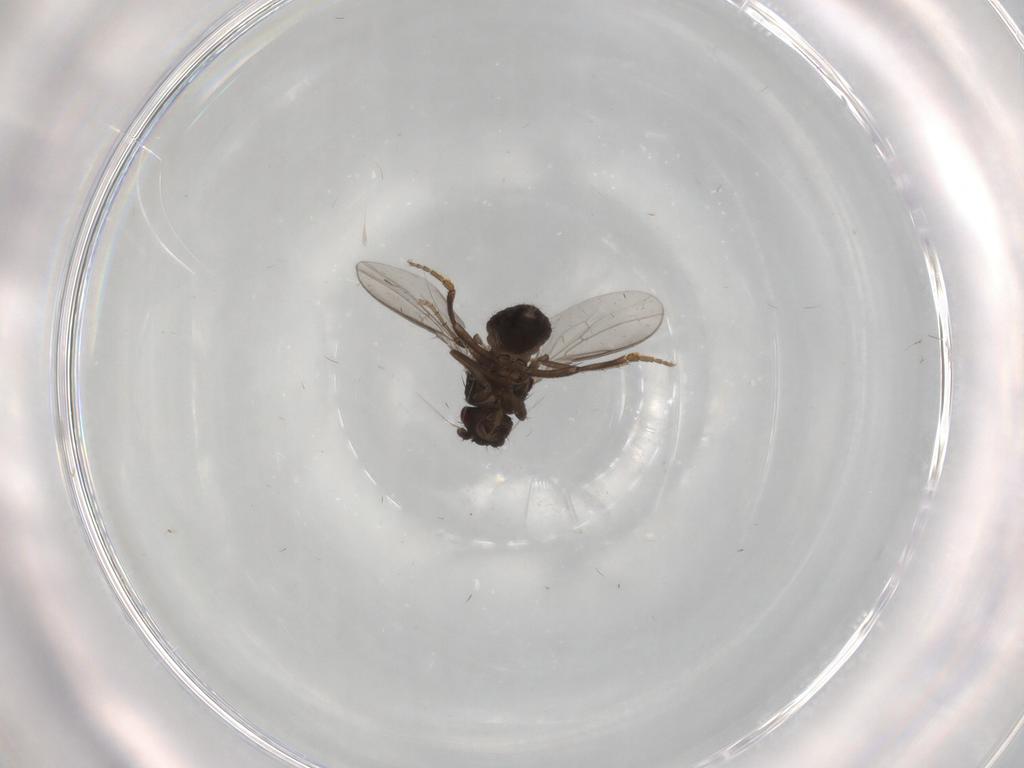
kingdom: Animalia
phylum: Arthropoda
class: Insecta
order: Diptera
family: Sphaeroceridae
